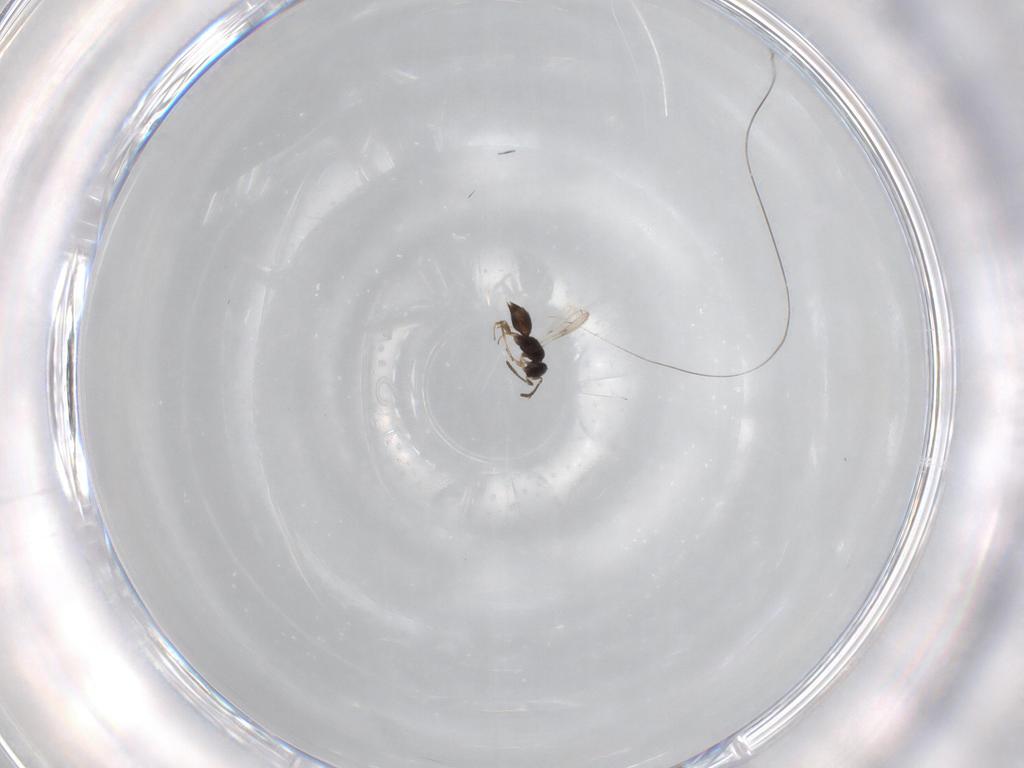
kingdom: Animalia
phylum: Arthropoda
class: Insecta
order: Hymenoptera
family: Scelionidae
